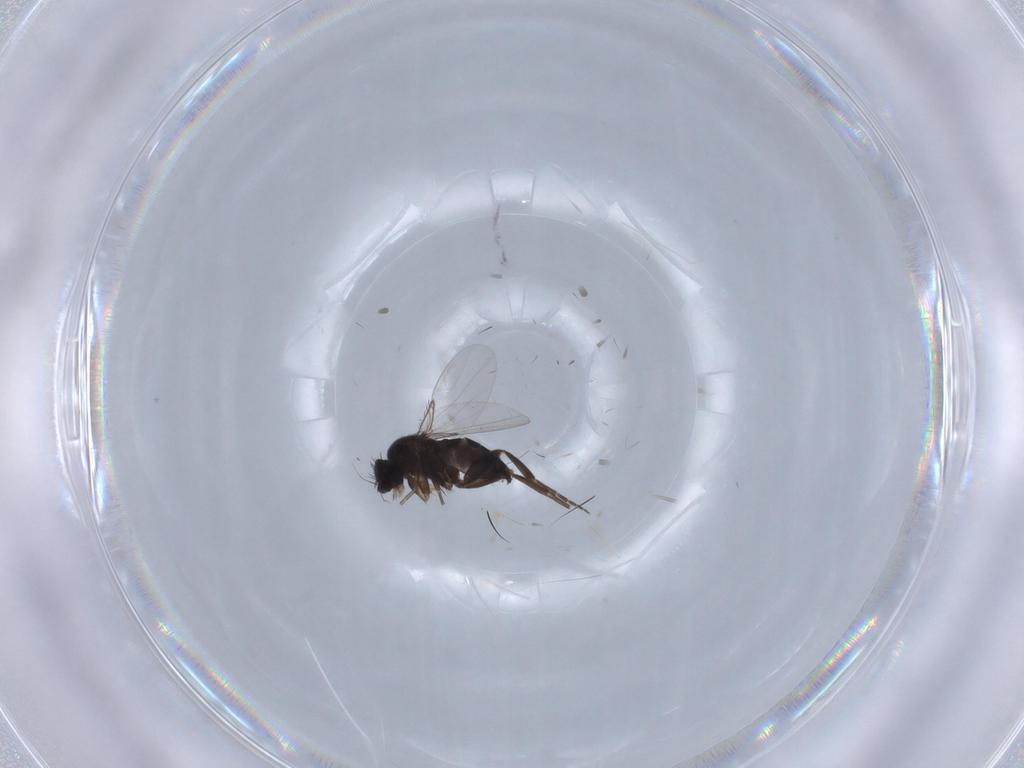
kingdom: Animalia
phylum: Arthropoda
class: Insecta
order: Diptera
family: Phoridae
